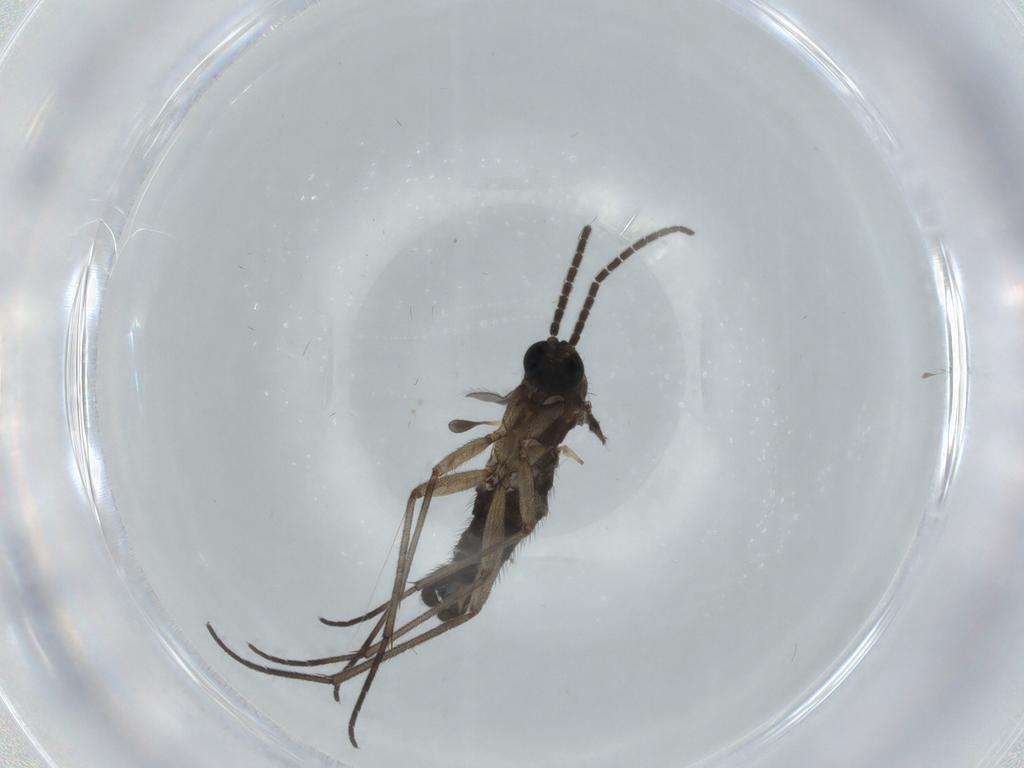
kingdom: Animalia
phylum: Arthropoda
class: Insecta
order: Diptera
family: Sciaridae
